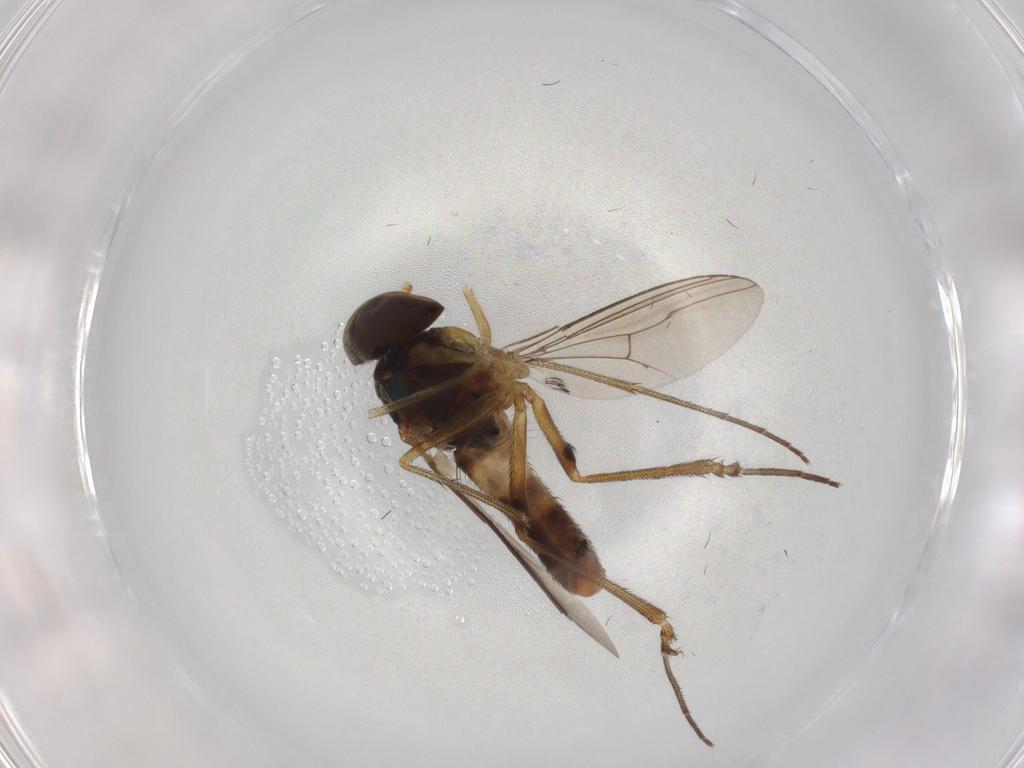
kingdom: Animalia
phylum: Arthropoda
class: Insecta
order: Diptera
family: Dolichopodidae
